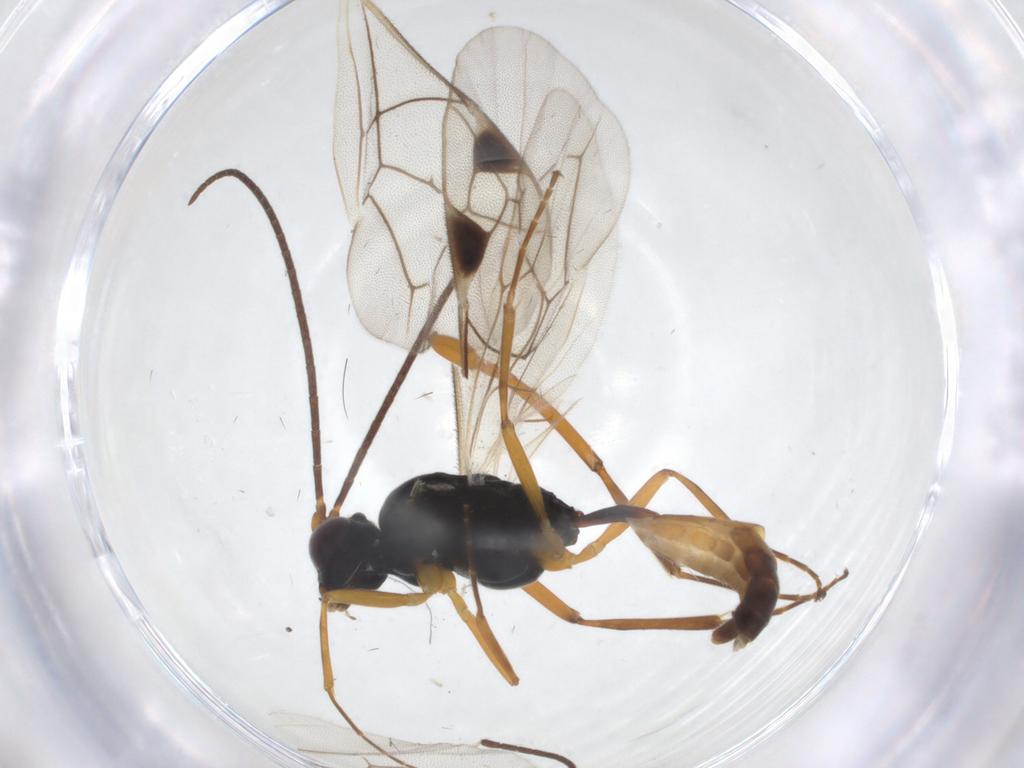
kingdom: Animalia
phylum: Arthropoda
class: Insecta
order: Hymenoptera
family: Ichneumonidae
